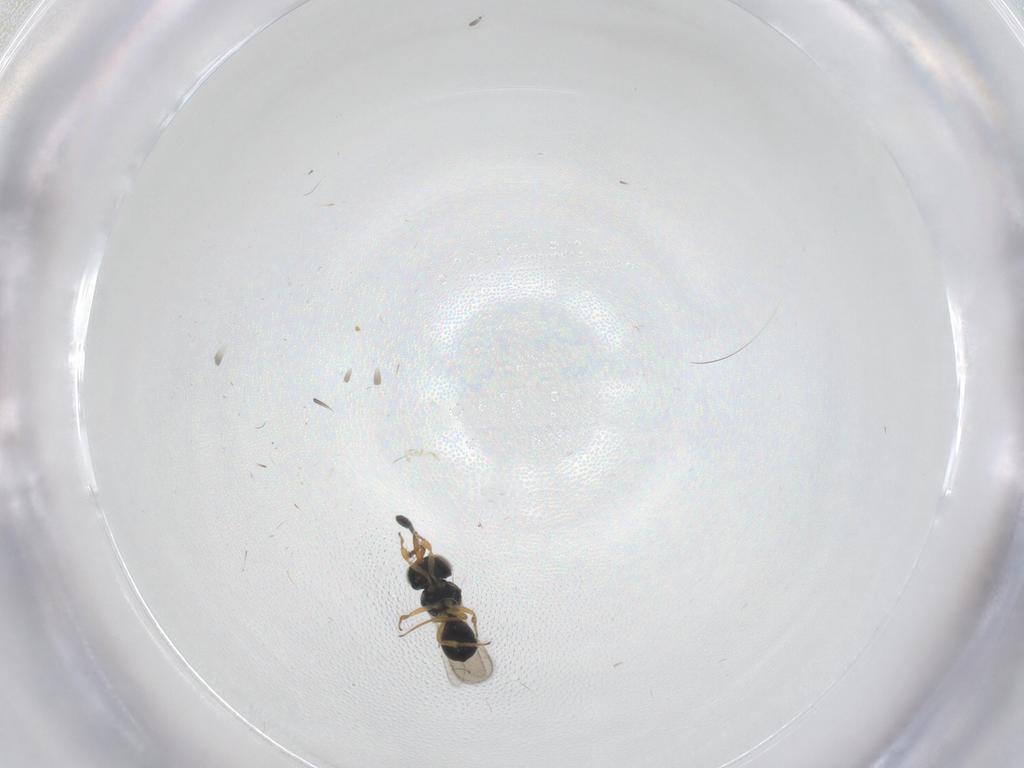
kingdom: Animalia
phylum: Arthropoda
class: Insecta
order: Hymenoptera
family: Scelionidae
